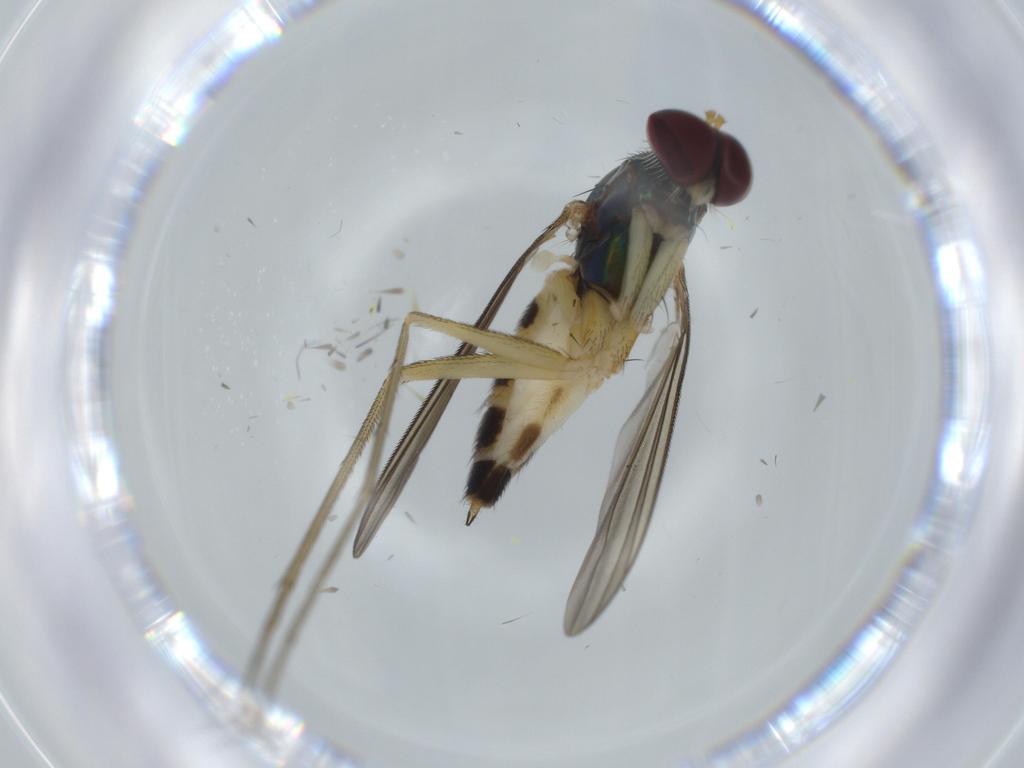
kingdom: Animalia
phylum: Arthropoda
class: Insecta
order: Diptera
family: Dolichopodidae
